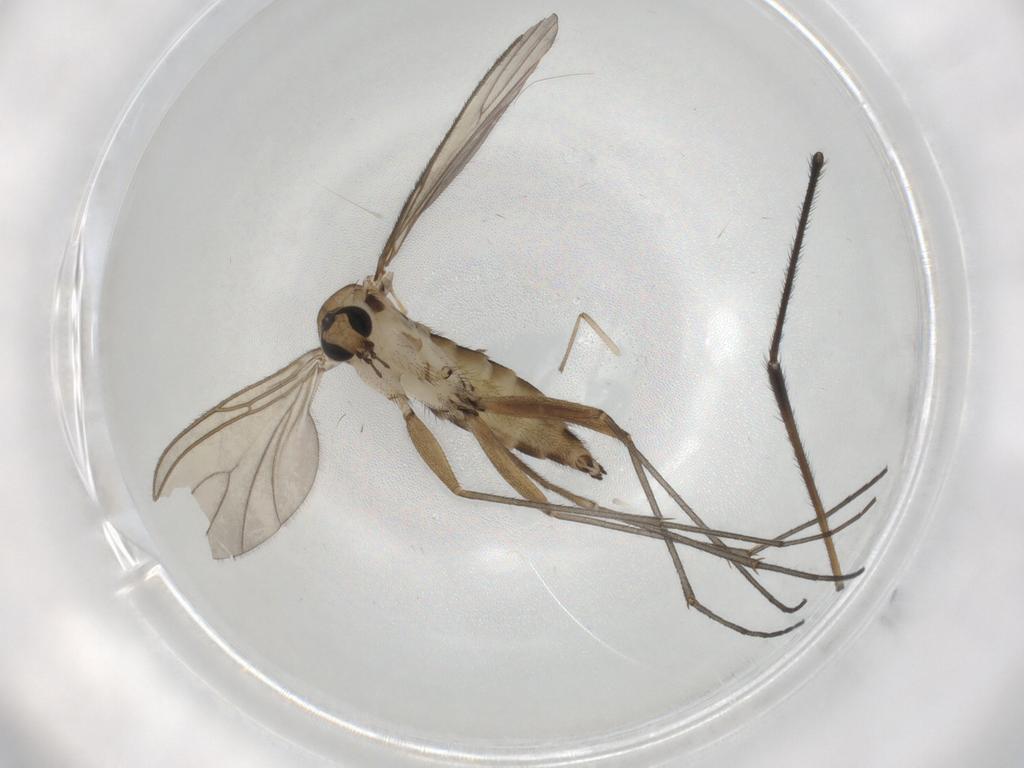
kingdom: Animalia
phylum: Arthropoda
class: Insecta
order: Diptera
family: Sciaridae
